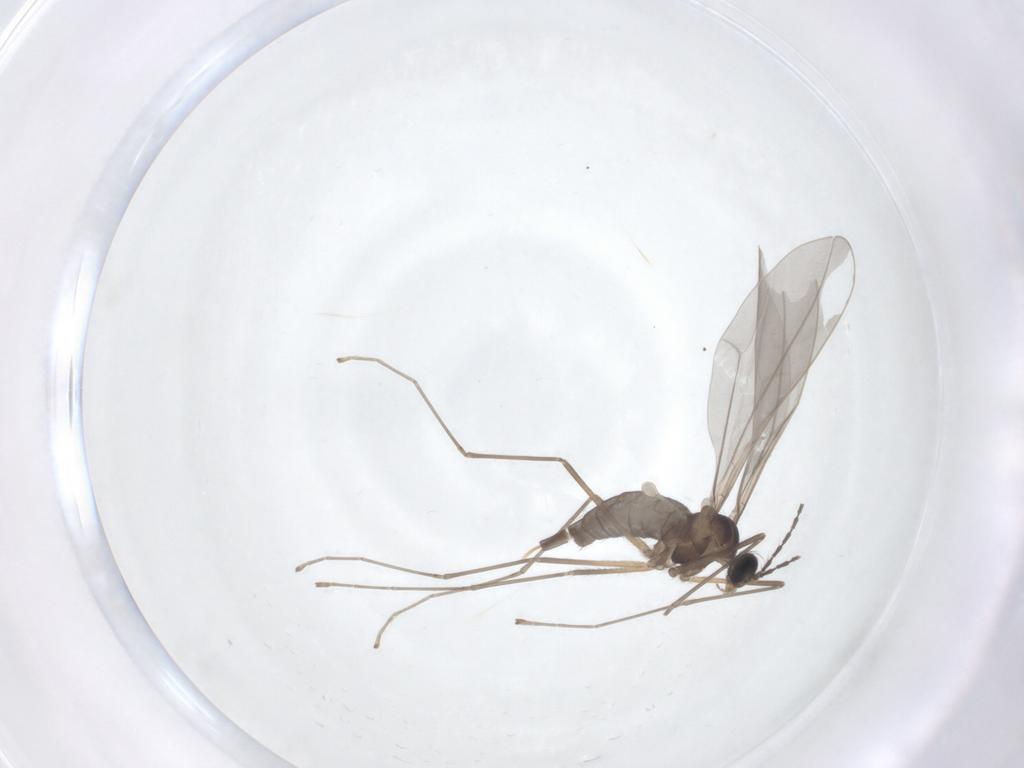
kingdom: Animalia
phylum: Arthropoda
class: Insecta
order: Diptera
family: Cecidomyiidae
